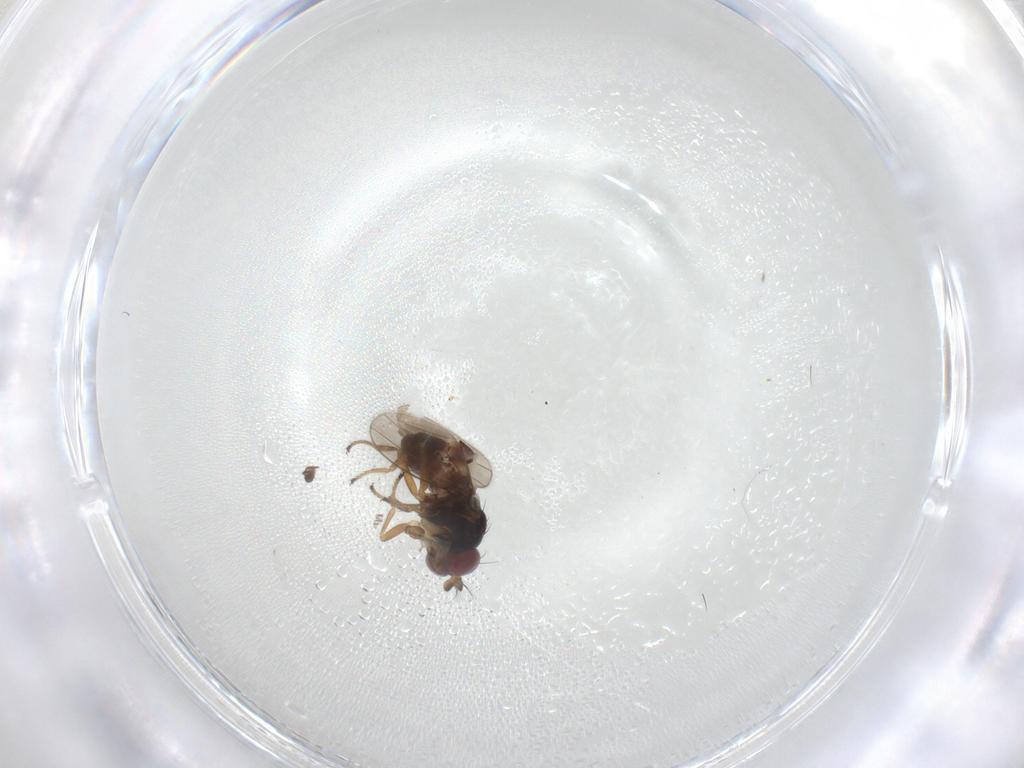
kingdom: Animalia
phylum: Arthropoda
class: Insecta
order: Diptera
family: Ephydridae
